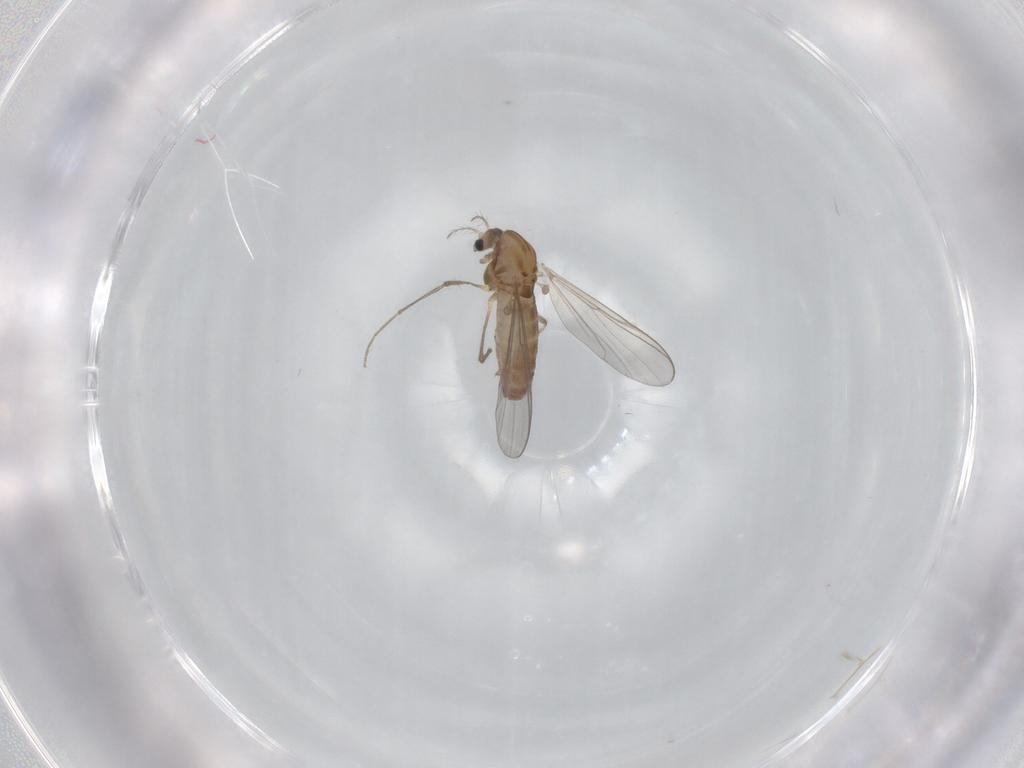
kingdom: Animalia
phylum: Arthropoda
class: Insecta
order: Diptera
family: Chironomidae
